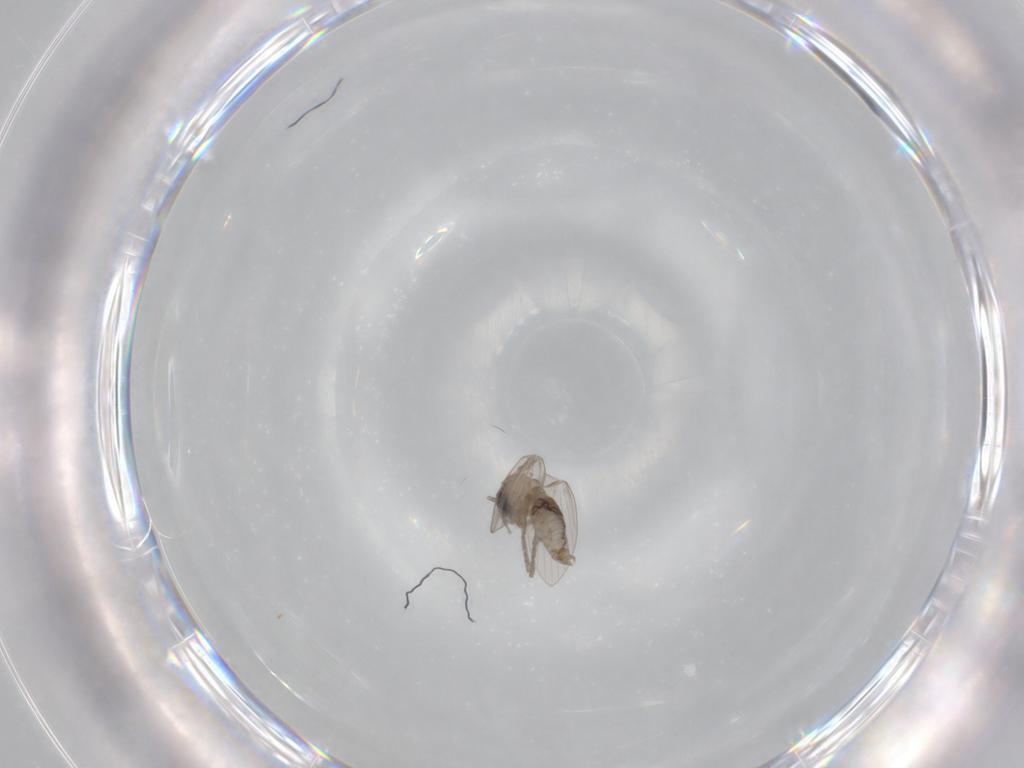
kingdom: Animalia
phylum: Arthropoda
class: Insecta
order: Diptera
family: Psychodidae
